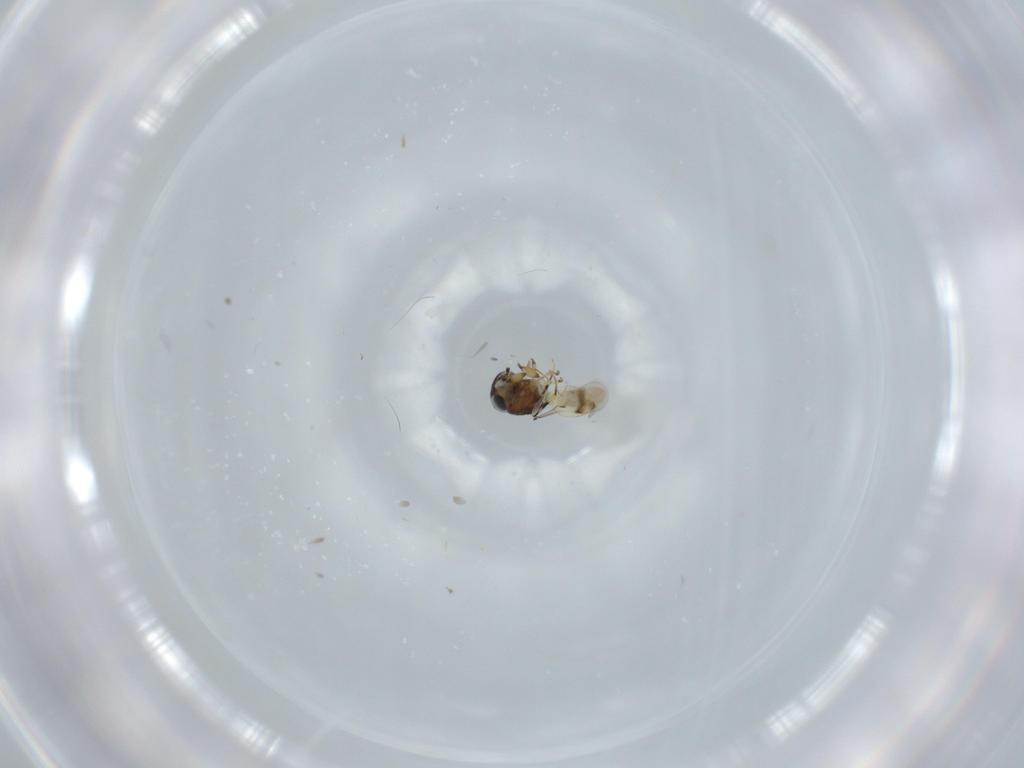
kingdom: Animalia
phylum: Arthropoda
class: Insecta
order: Hymenoptera
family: Scelionidae
